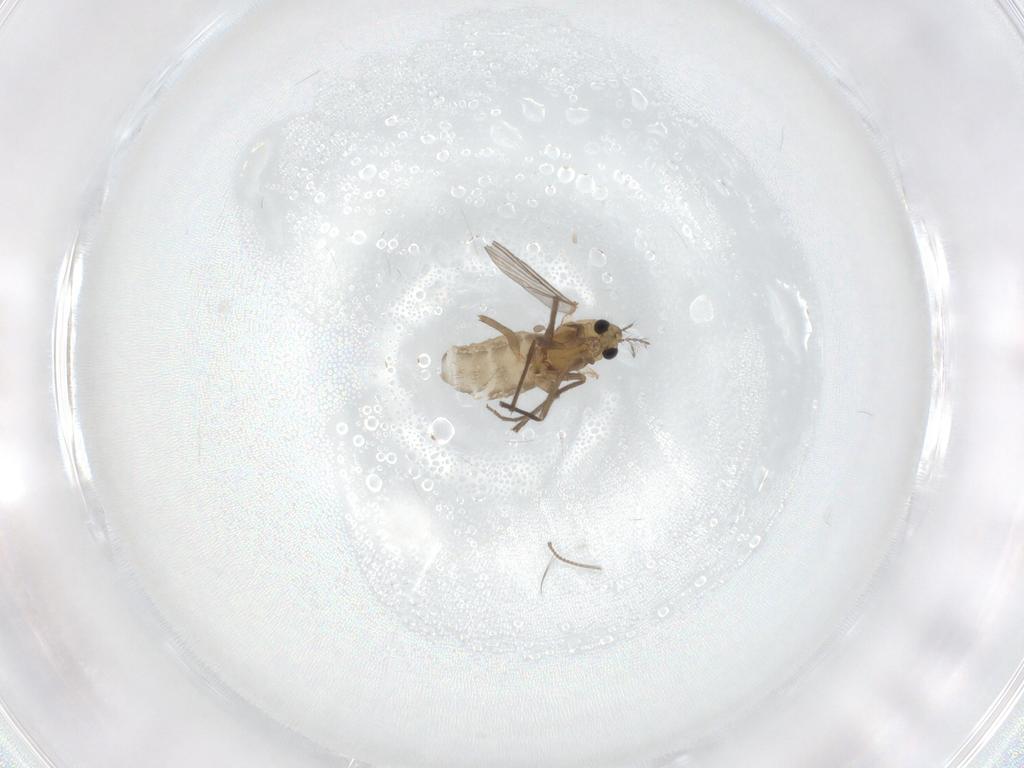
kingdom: Animalia
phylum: Arthropoda
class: Insecta
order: Diptera
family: Chironomidae
